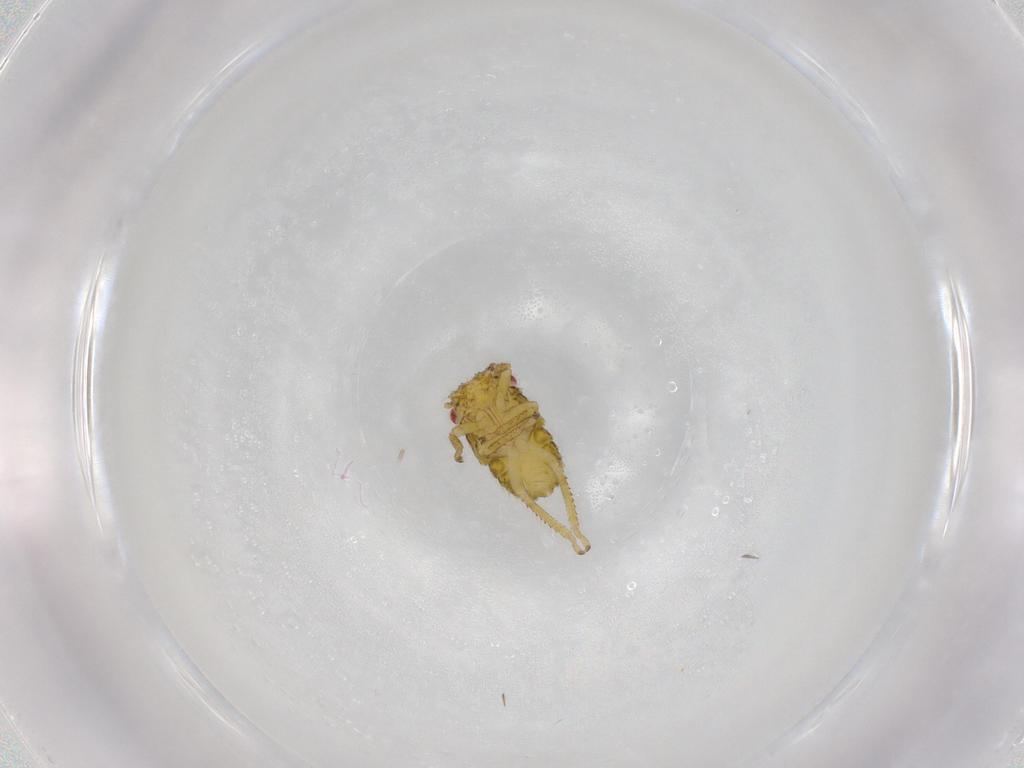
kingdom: Animalia
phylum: Arthropoda
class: Insecta
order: Hemiptera
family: Cicadellidae
